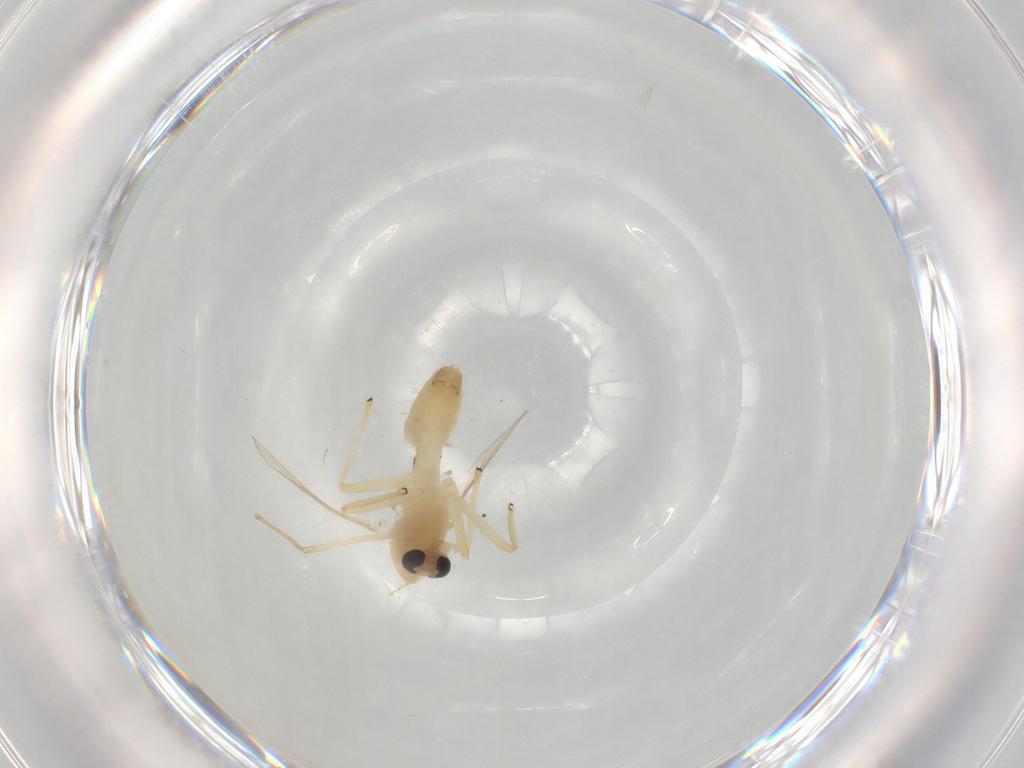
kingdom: Animalia
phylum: Arthropoda
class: Insecta
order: Diptera
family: Chironomidae
